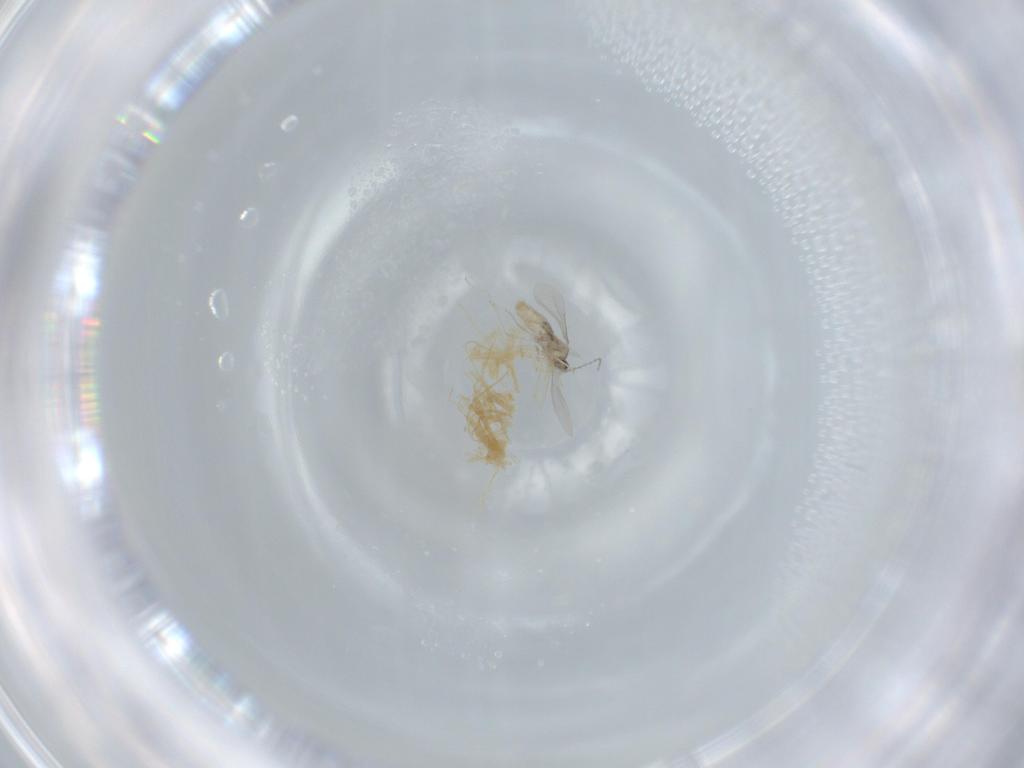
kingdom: Animalia
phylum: Arthropoda
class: Insecta
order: Diptera
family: Cecidomyiidae
